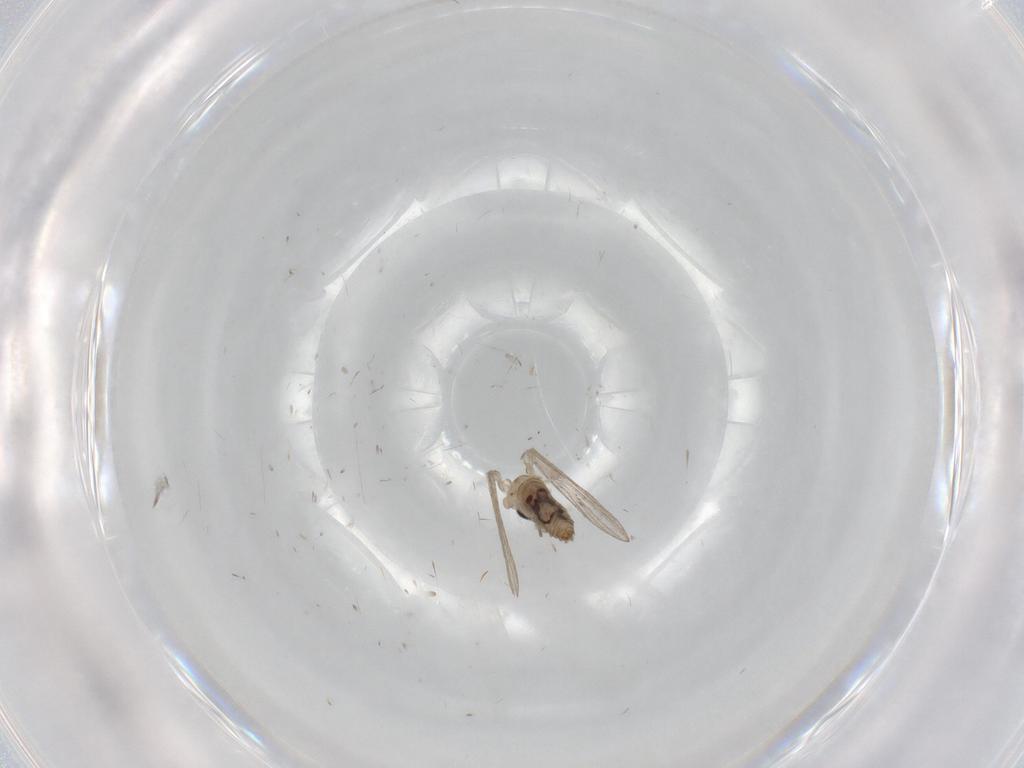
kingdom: Animalia
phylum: Arthropoda
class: Insecta
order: Diptera
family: Psychodidae
